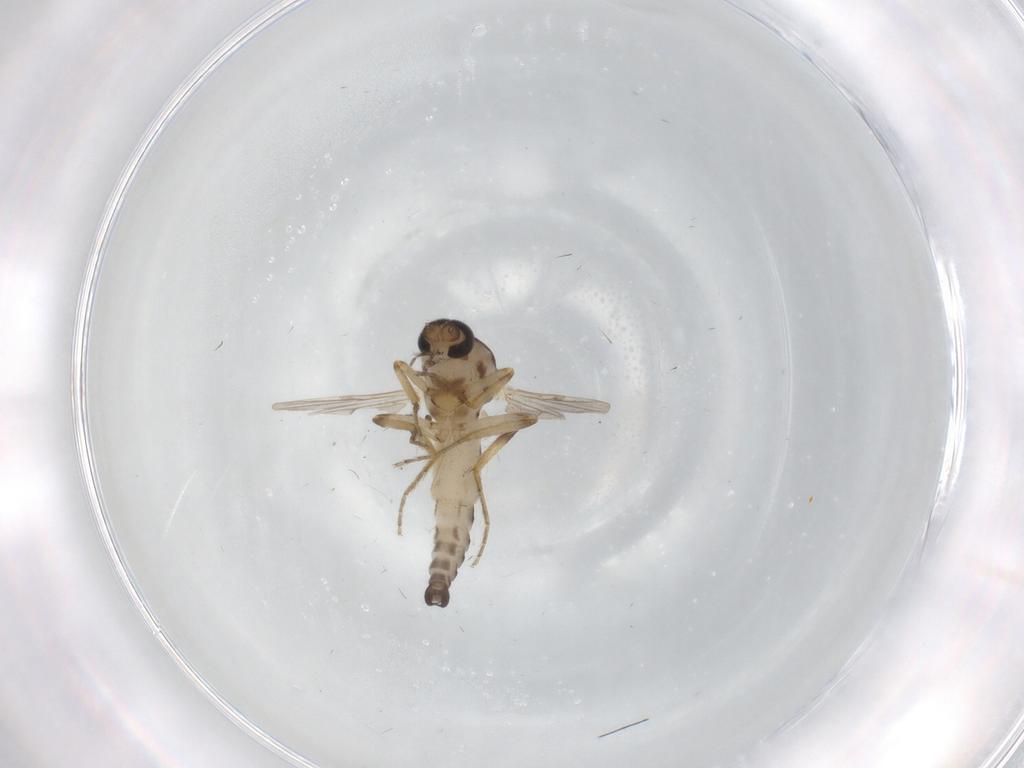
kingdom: Animalia
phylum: Arthropoda
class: Insecta
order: Diptera
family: Ceratopogonidae
